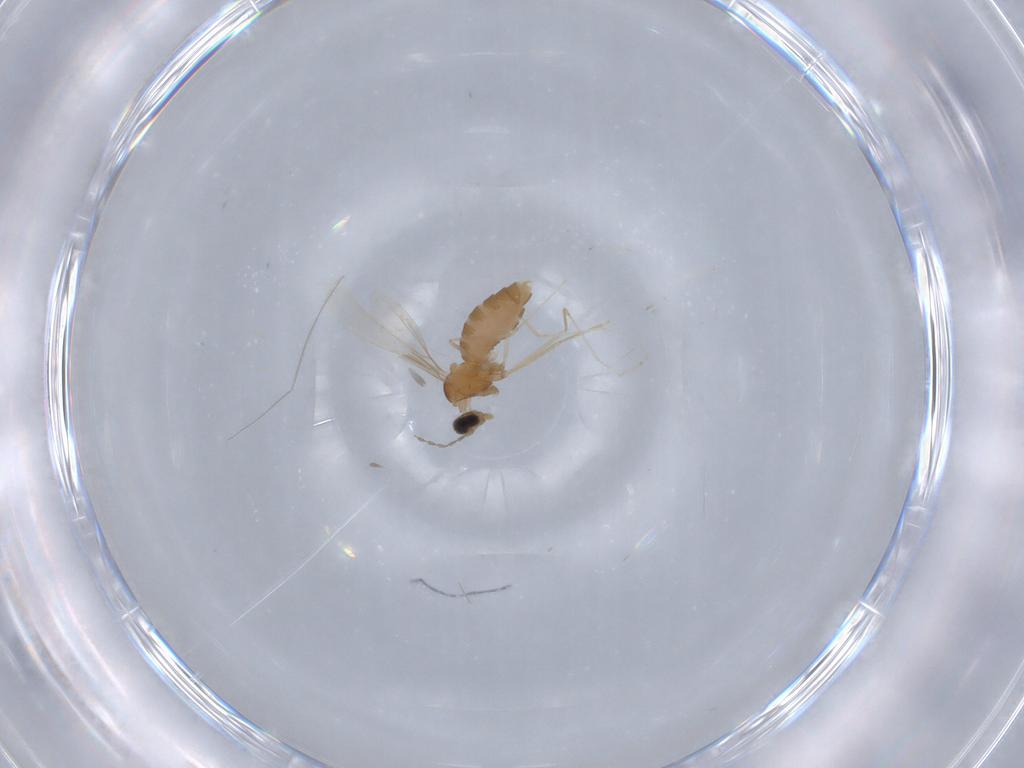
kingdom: Animalia
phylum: Arthropoda
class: Insecta
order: Diptera
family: Cecidomyiidae
